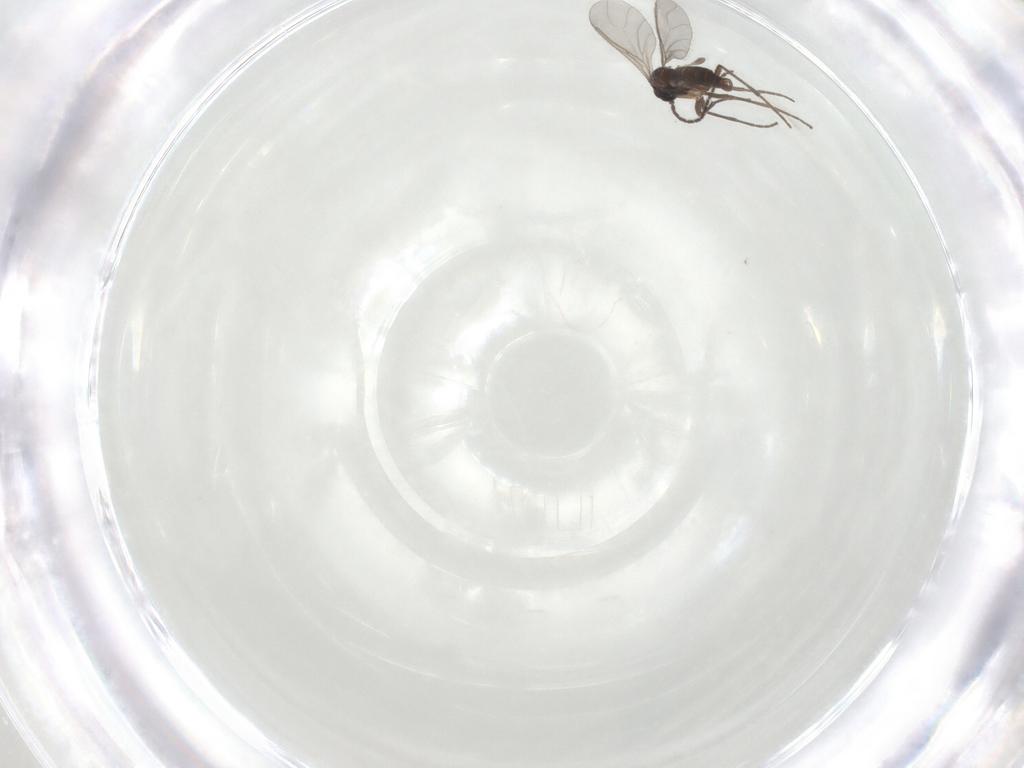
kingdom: Animalia
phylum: Arthropoda
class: Insecta
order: Diptera
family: Sciaridae
